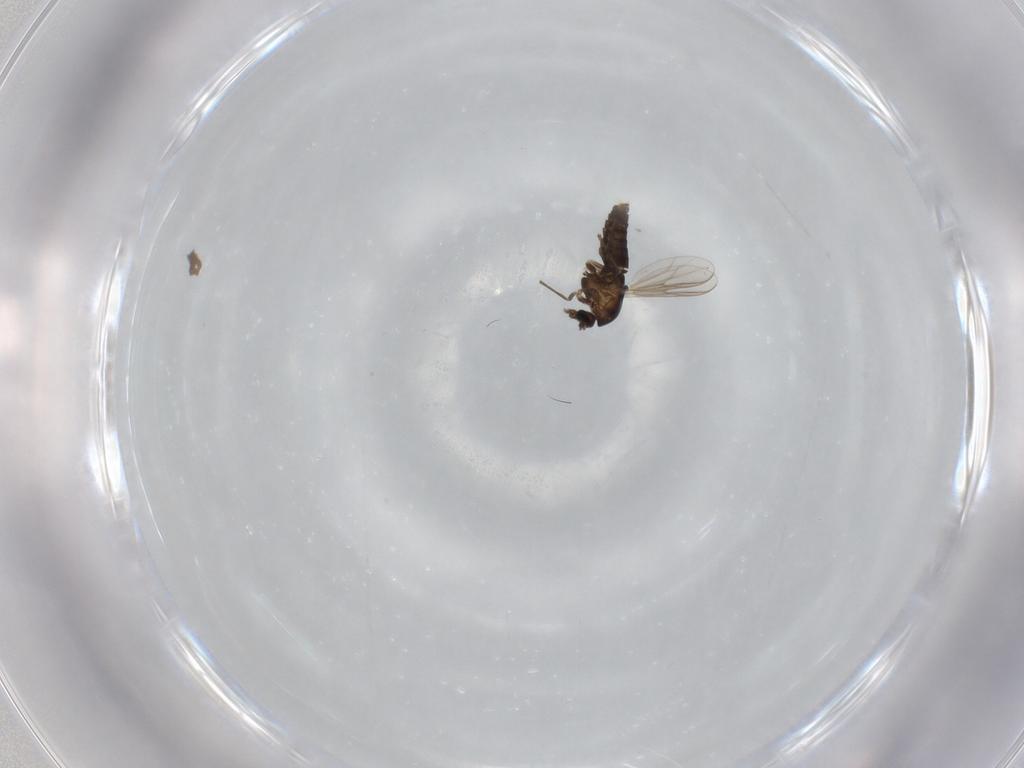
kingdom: Animalia
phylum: Arthropoda
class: Insecta
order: Diptera
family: Chironomidae
